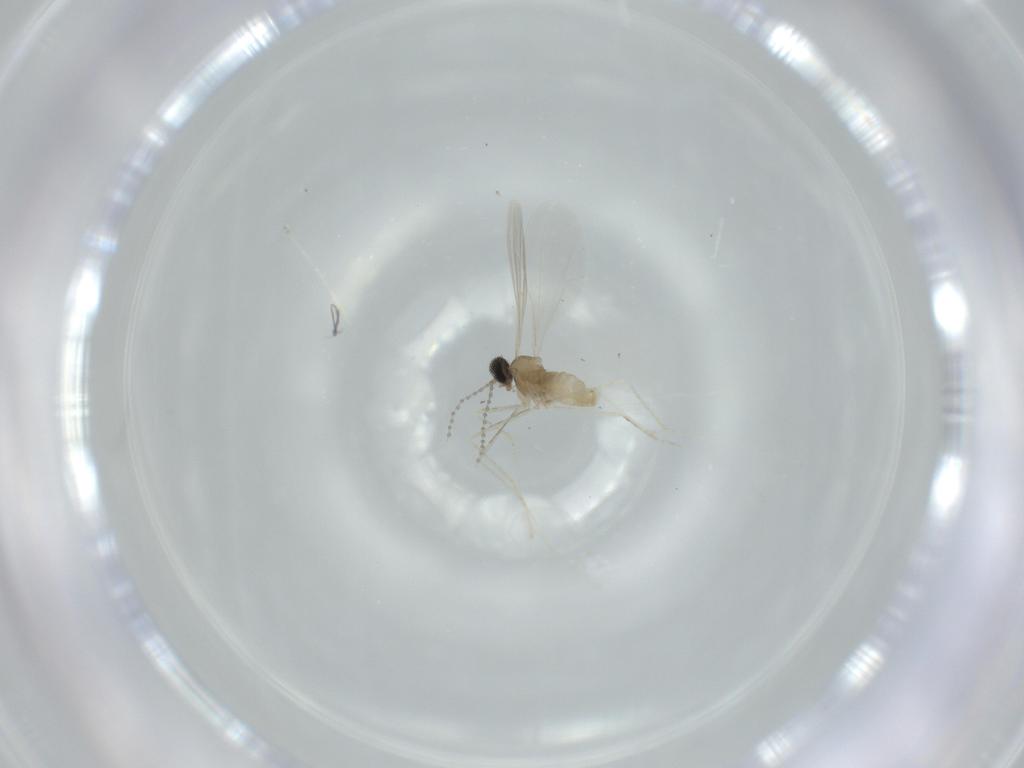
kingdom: Animalia
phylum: Arthropoda
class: Insecta
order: Diptera
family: Cecidomyiidae
